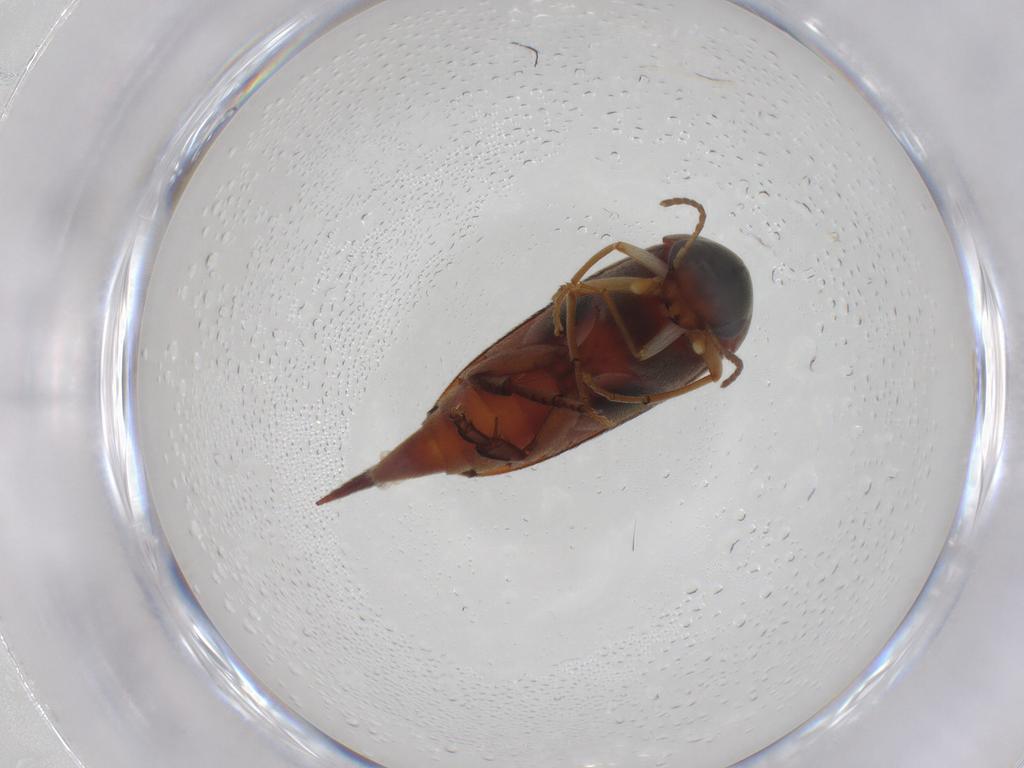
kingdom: Animalia
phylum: Arthropoda
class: Insecta
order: Coleoptera
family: Mordellidae
